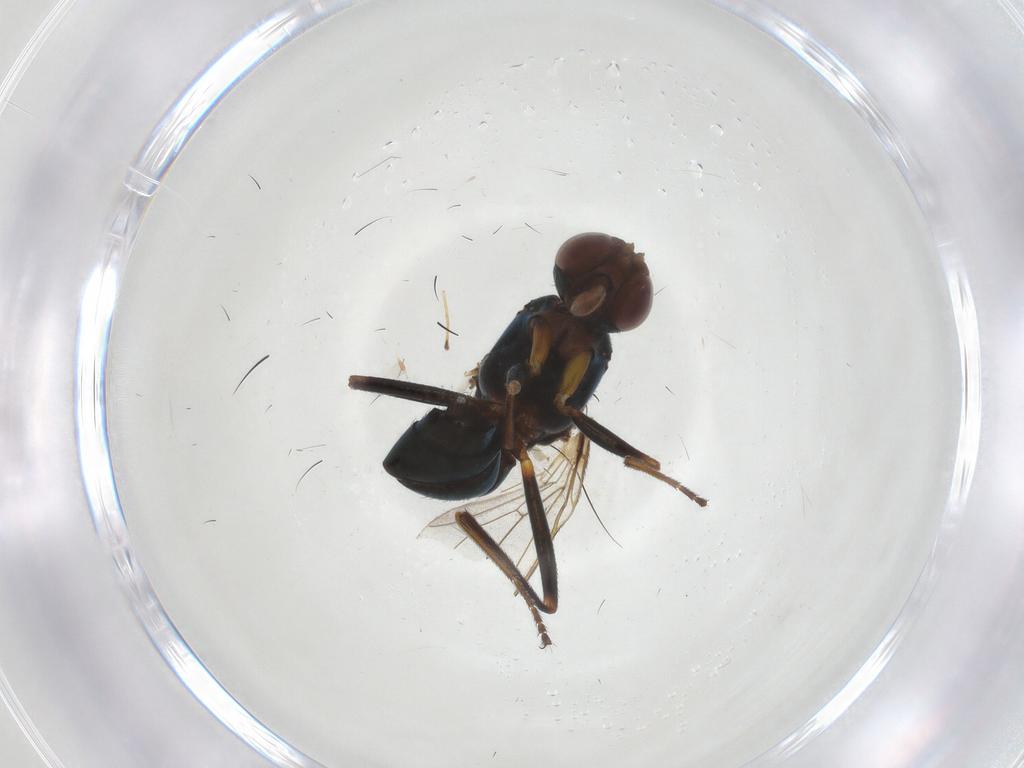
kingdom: Animalia
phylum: Arthropoda
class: Insecta
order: Diptera
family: Sepsidae
